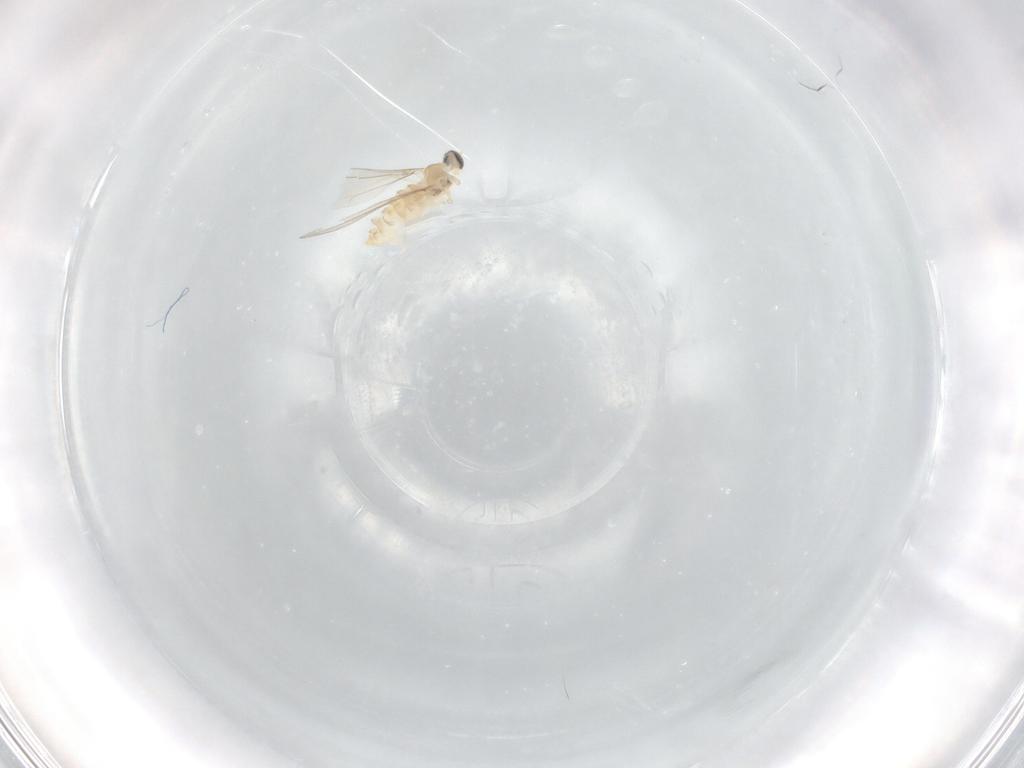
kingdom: Animalia
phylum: Arthropoda
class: Insecta
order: Diptera
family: Cecidomyiidae
